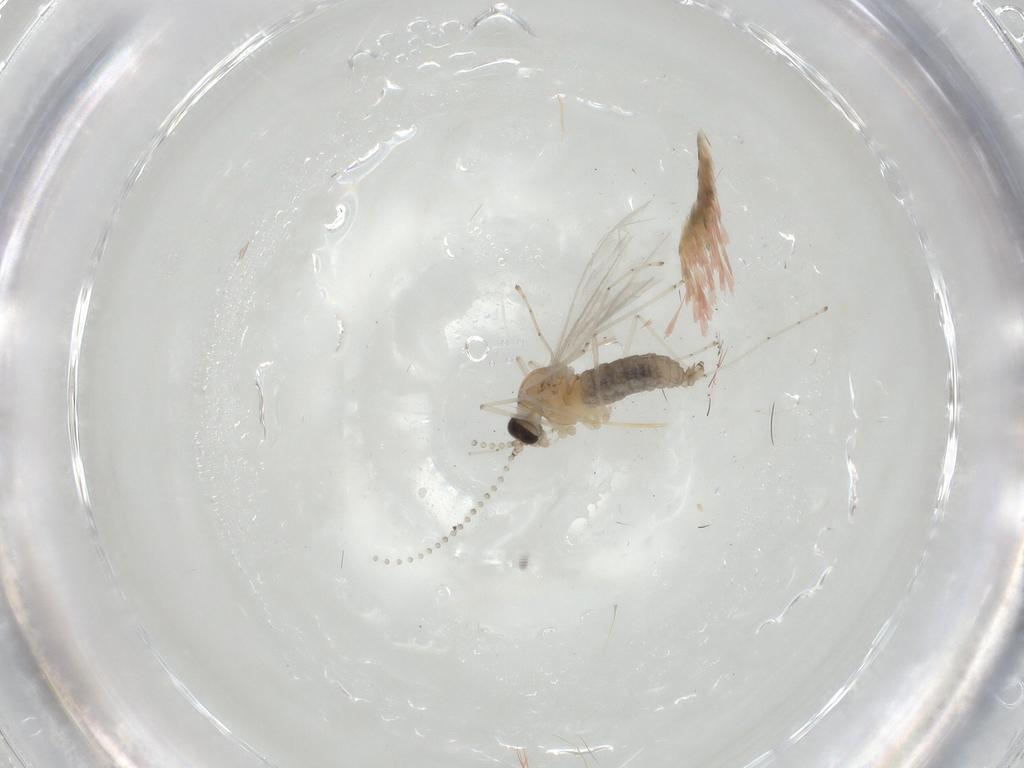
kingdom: Animalia
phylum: Arthropoda
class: Insecta
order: Diptera
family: Cecidomyiidae
